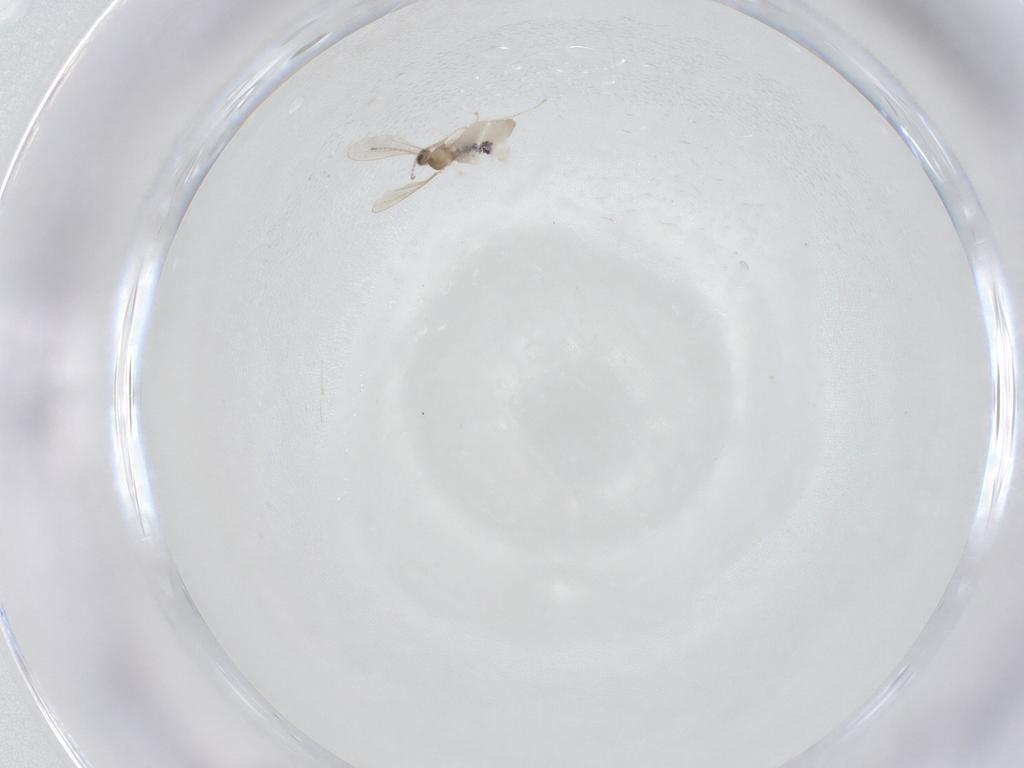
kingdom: Animalia
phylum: Arthropoda
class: Insecta
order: Diptera
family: Cecidomyiidae
